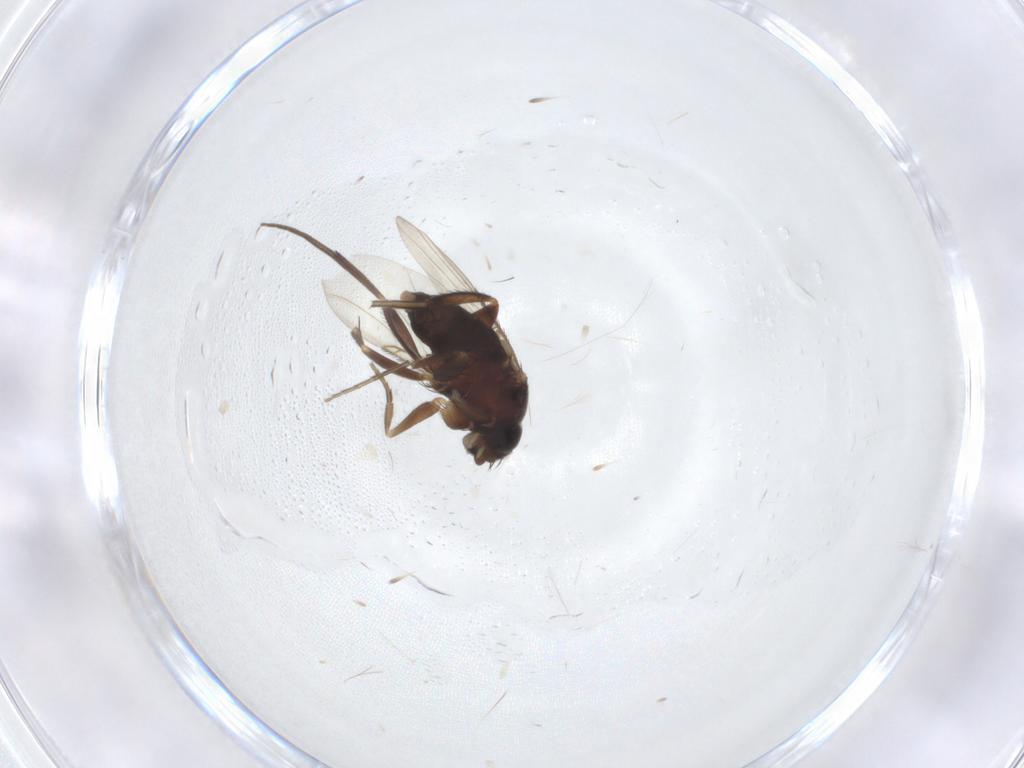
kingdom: Animalia
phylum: Arthropoda
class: Insecta
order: Diptera
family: Phoridae
